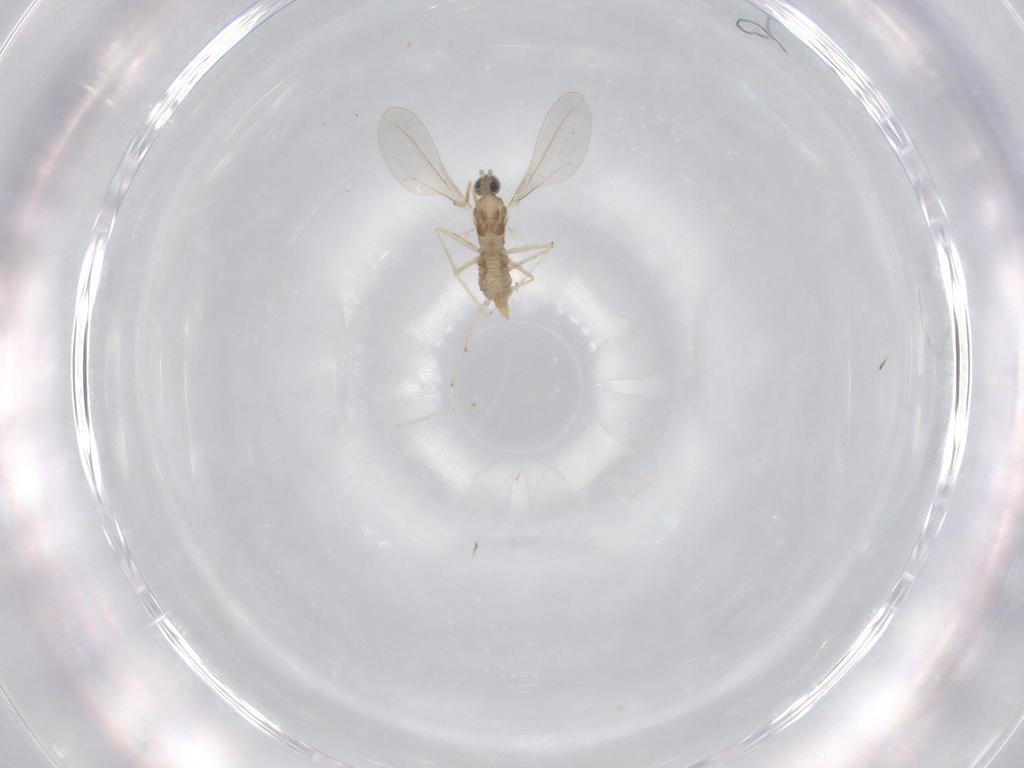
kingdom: Animalia
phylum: Arthropoda
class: Insecta
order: Diptera
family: Cecidomyiidae
